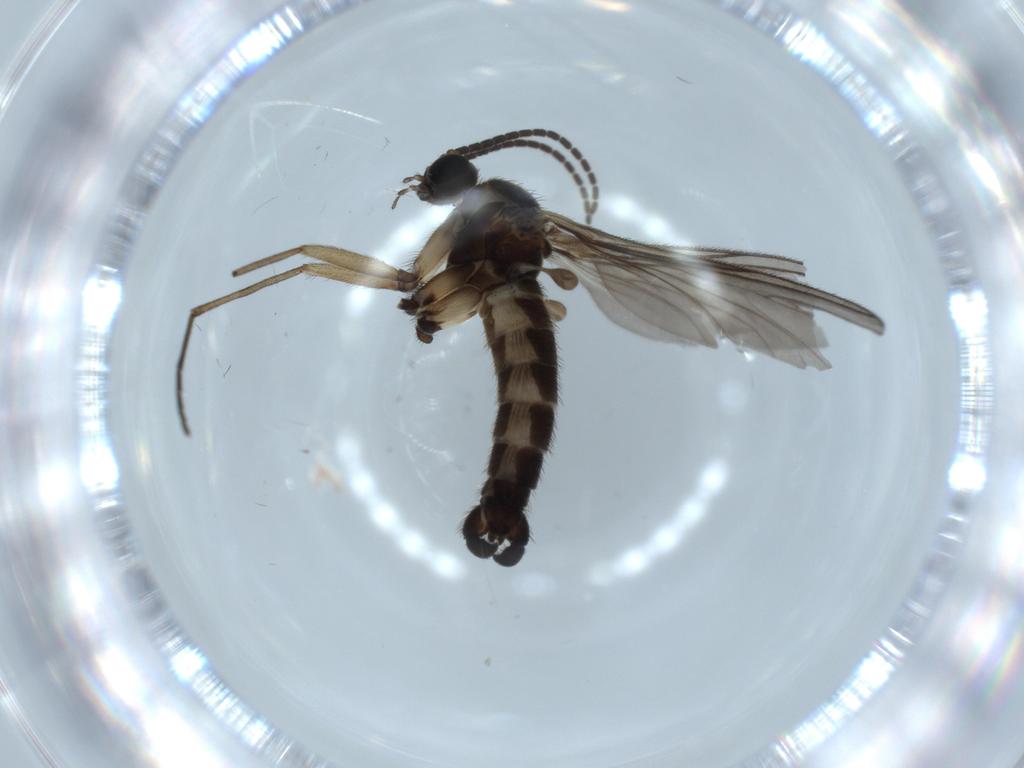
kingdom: Animalia
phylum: Arthropoda
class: Insecta
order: Diptera
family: Sciaridae
